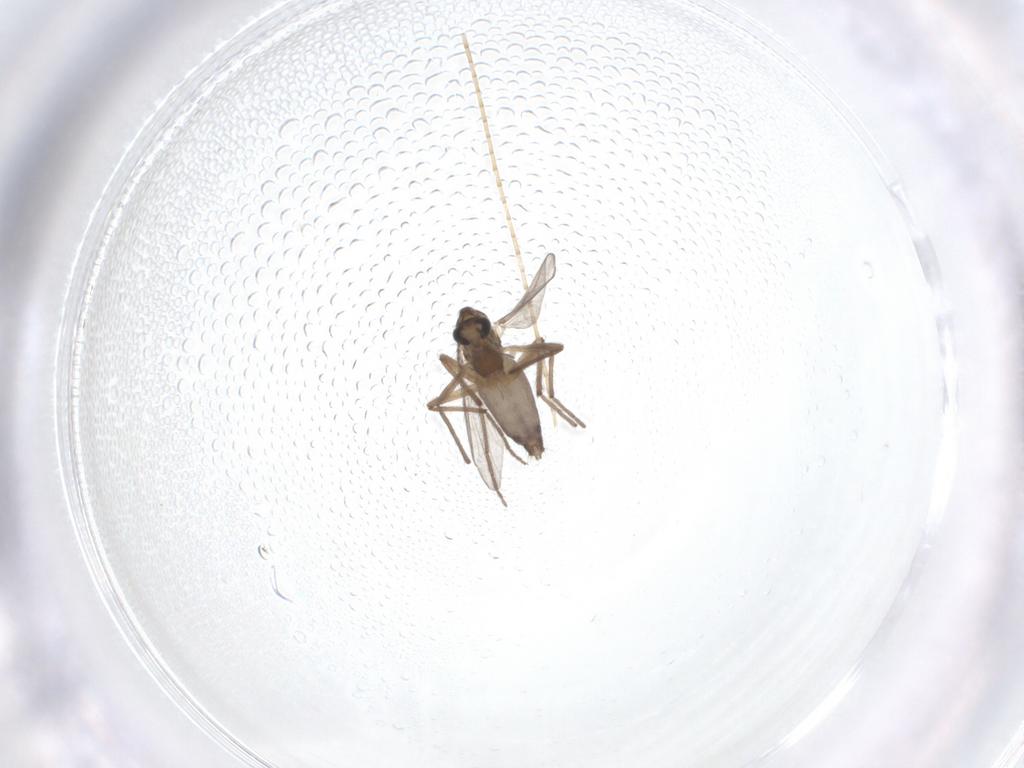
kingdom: Animalia
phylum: Arthropoda
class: Insecta
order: Diptera
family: Chironomidae
